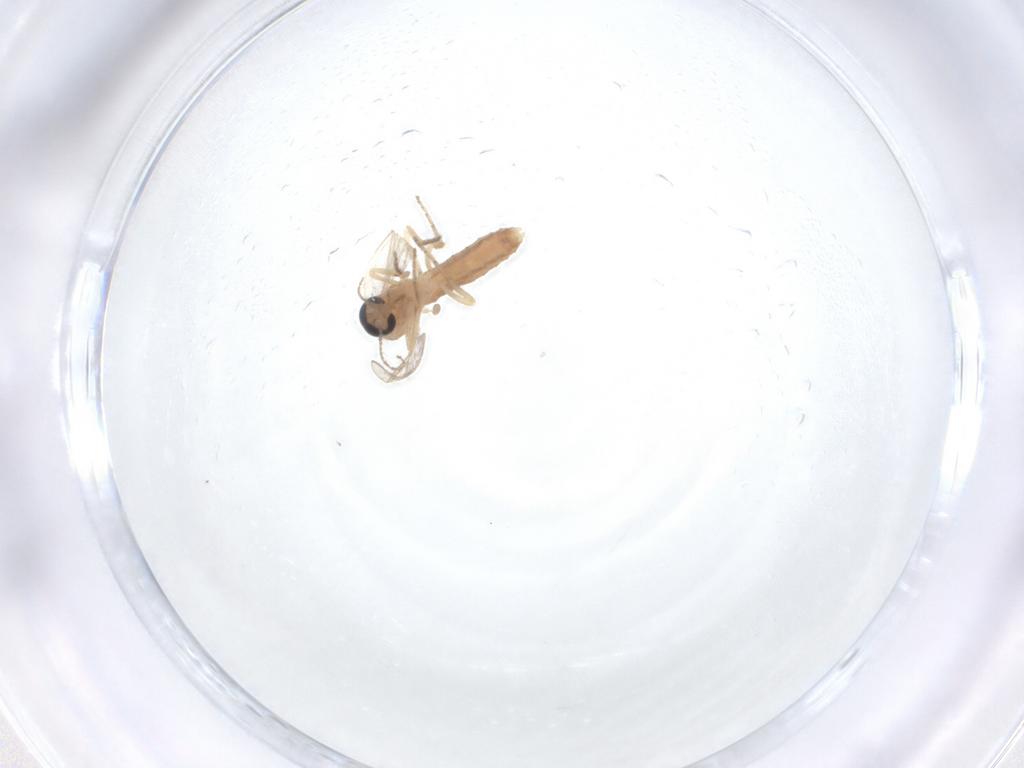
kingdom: Animalia
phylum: Arthropoda
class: Insecta
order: Diptera
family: Ceratopogonidae
